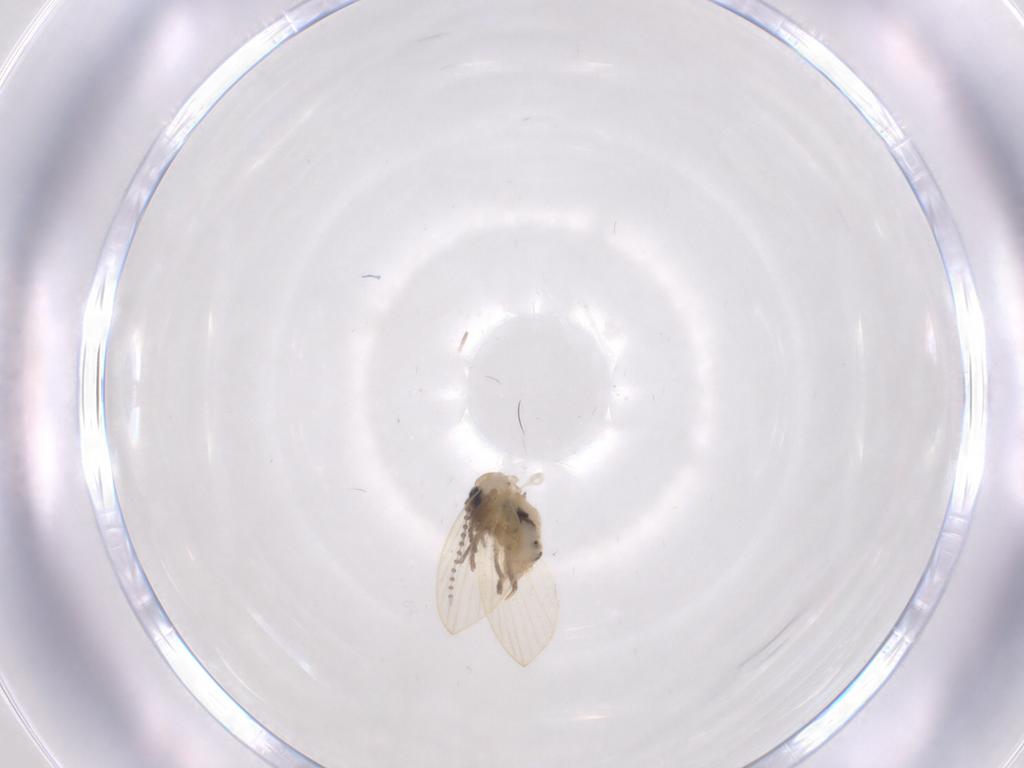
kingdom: Animalia
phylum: Arthropoda
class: Insecta
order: Diptera
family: Psychodidae
